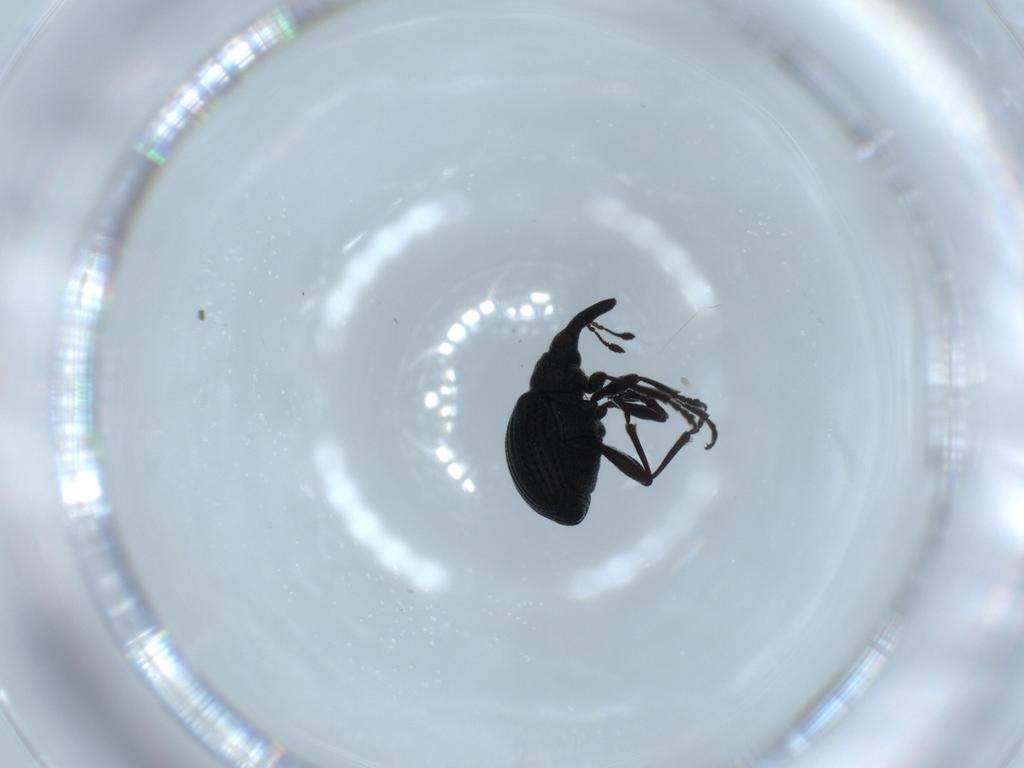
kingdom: Animalia
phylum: Arthropoda
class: Insecta
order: Coleoptera
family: Brentidae
